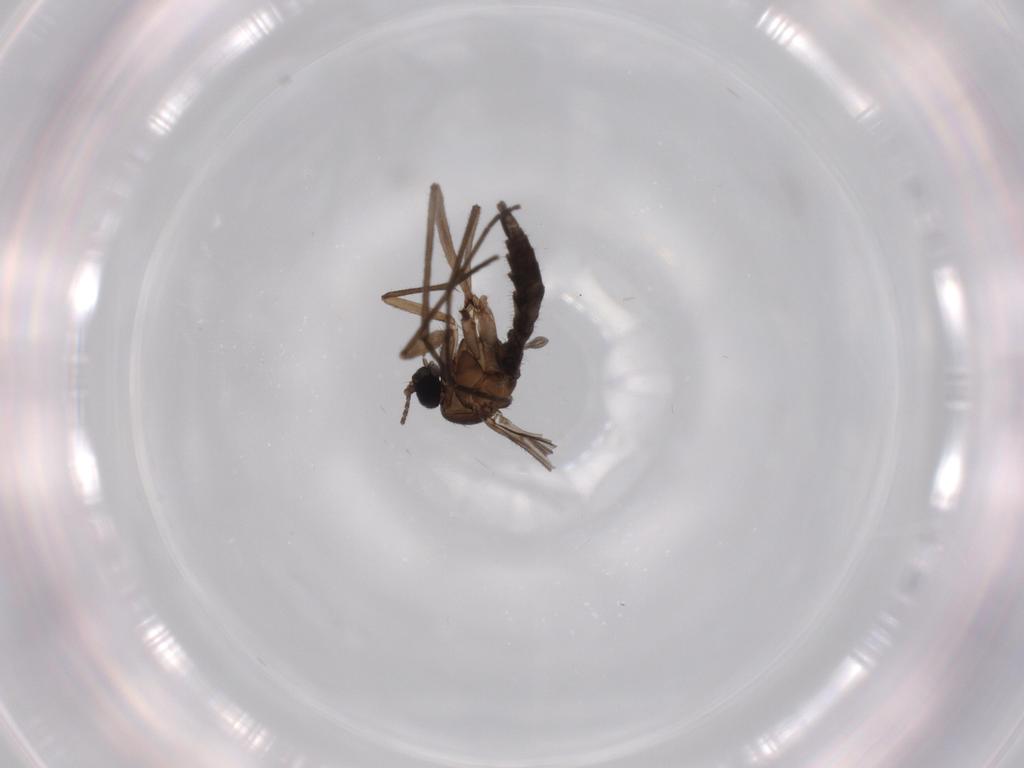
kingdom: Animalia
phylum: Arthropoda
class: Insecta
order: Diptera
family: Sciaridae
